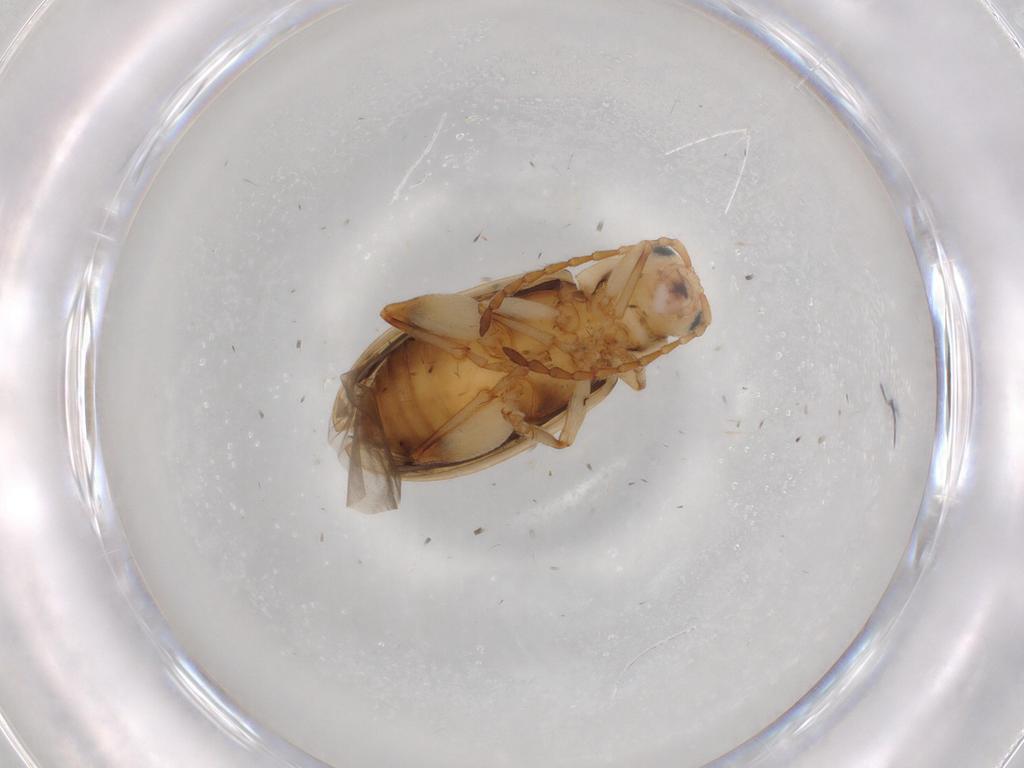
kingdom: Animalia
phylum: Arthropoda
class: Insecta
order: Coleoptera
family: Chrysomelidae
